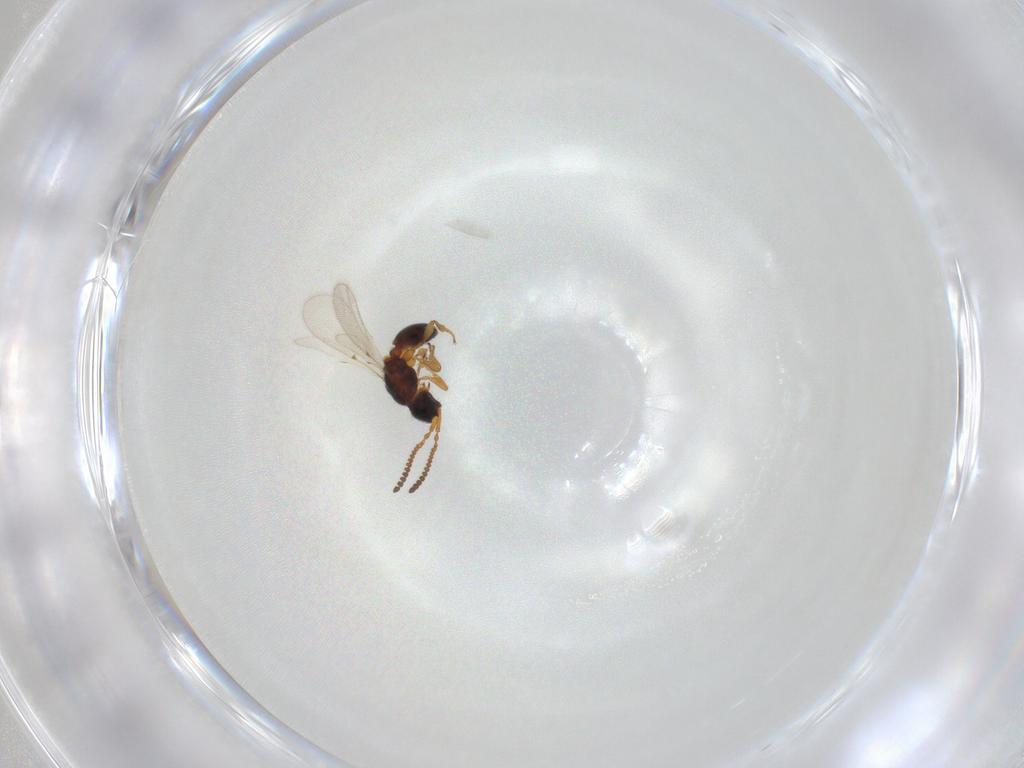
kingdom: Animalia
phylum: Arthropoda
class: Insecta
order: Hymenoptera
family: Diapriidae
